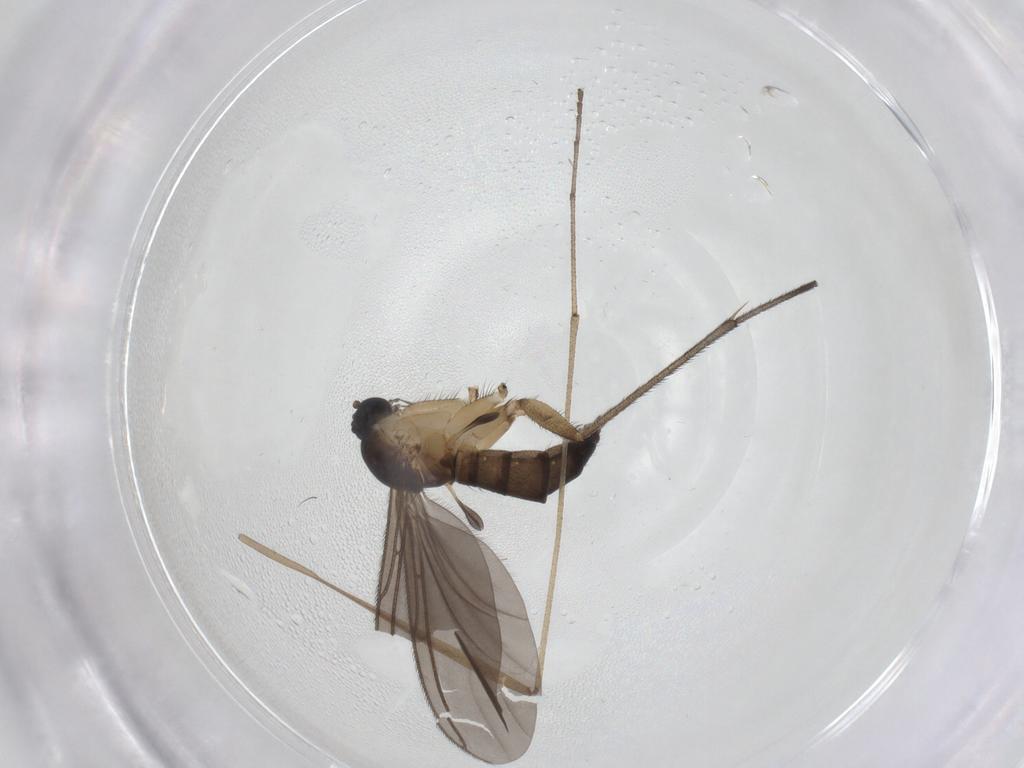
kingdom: Animalia
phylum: Arthropoda
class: Insecta
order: Diptera
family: Sciaridae
